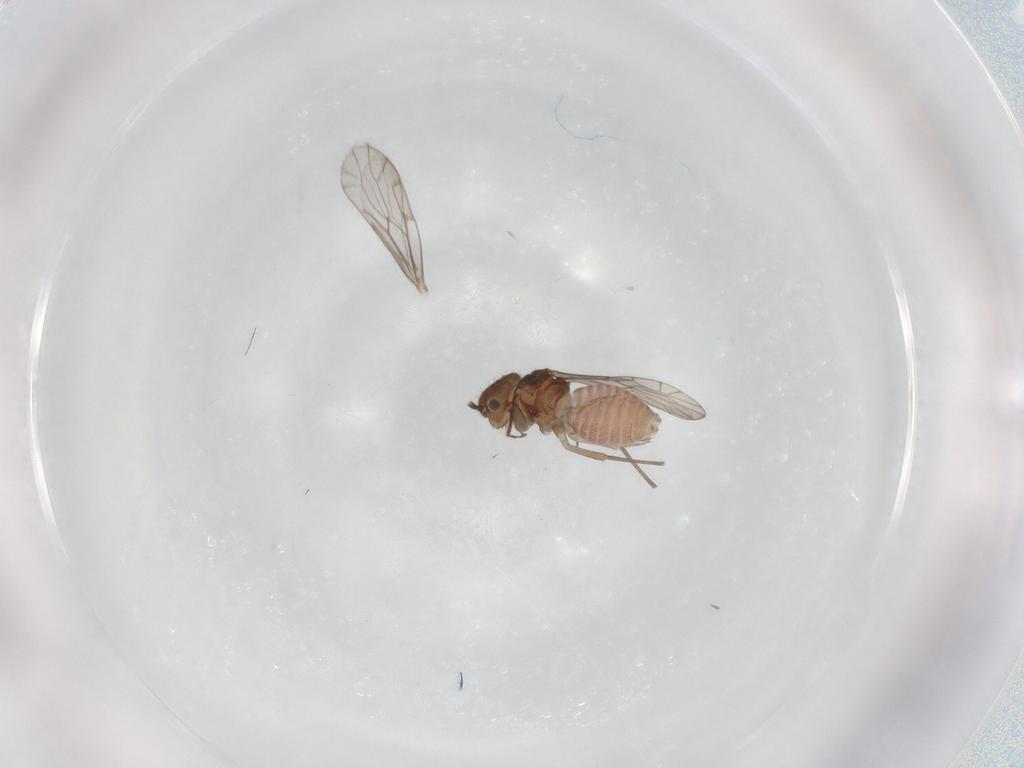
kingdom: Animalia
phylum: Arthropoda
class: Insecta
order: Psocodea
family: Ectopsocidae
